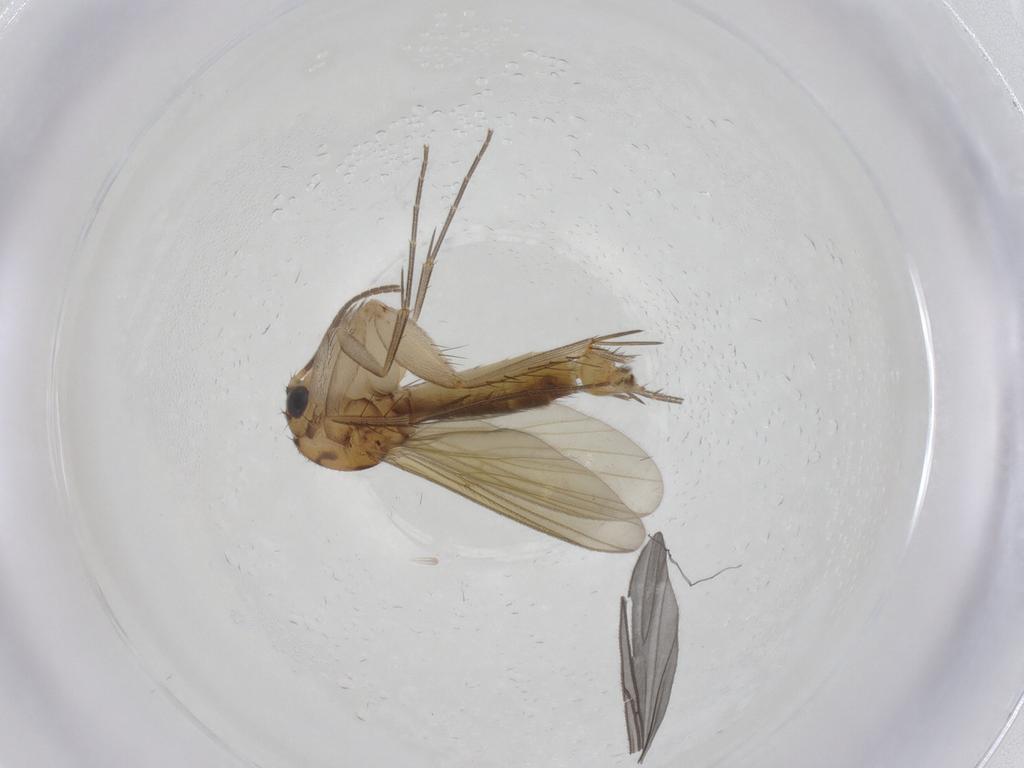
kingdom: Animalia
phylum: Arthropoda
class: Insecta
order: Diptera
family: Mycetophilidae
